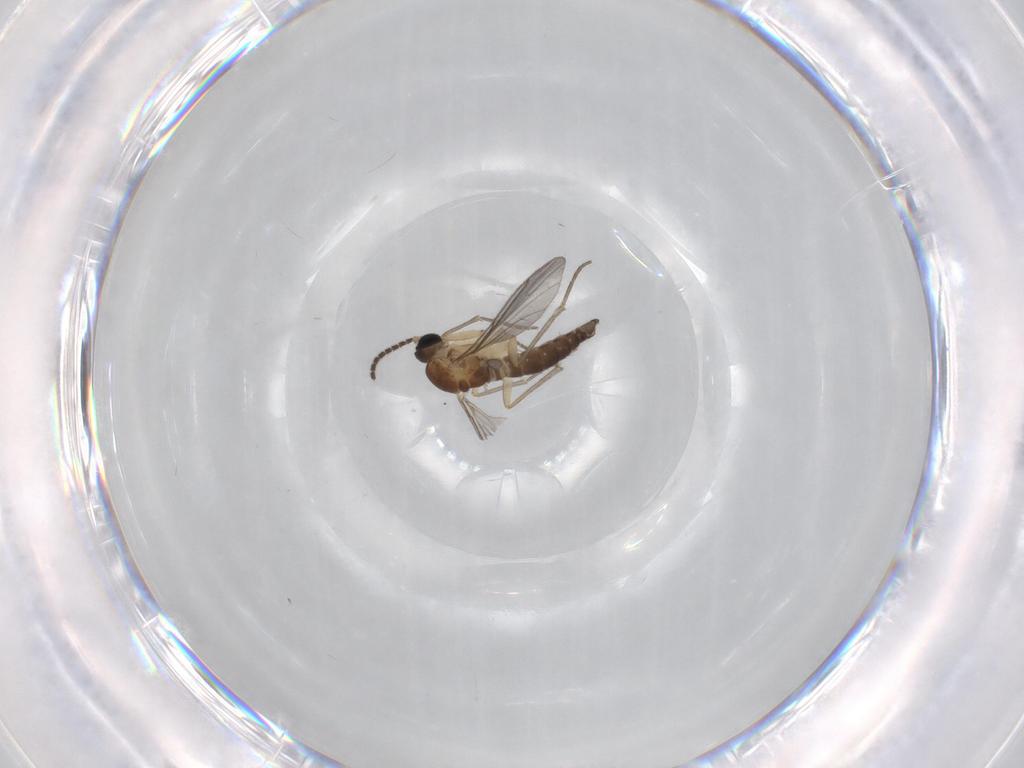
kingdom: Animalia
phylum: Arthropoda
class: Insecta
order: Diptera
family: Sciaridae
